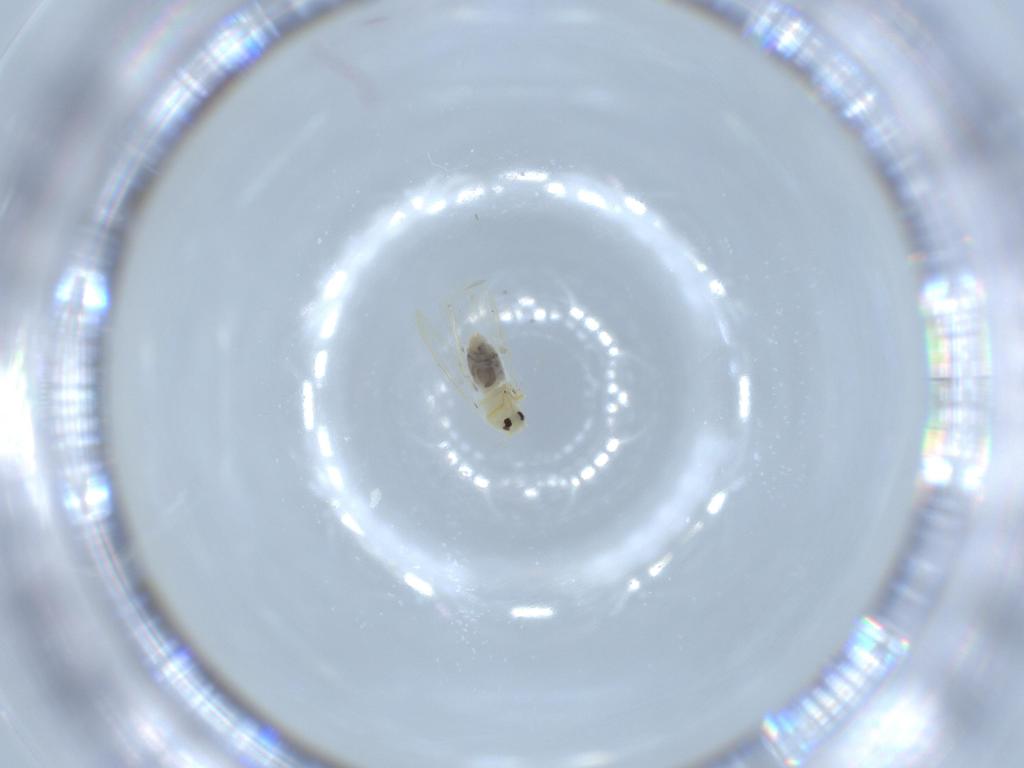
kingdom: Animalia
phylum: Arthropoda
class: Insecta
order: Hemiptera
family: Aleyrodidae
